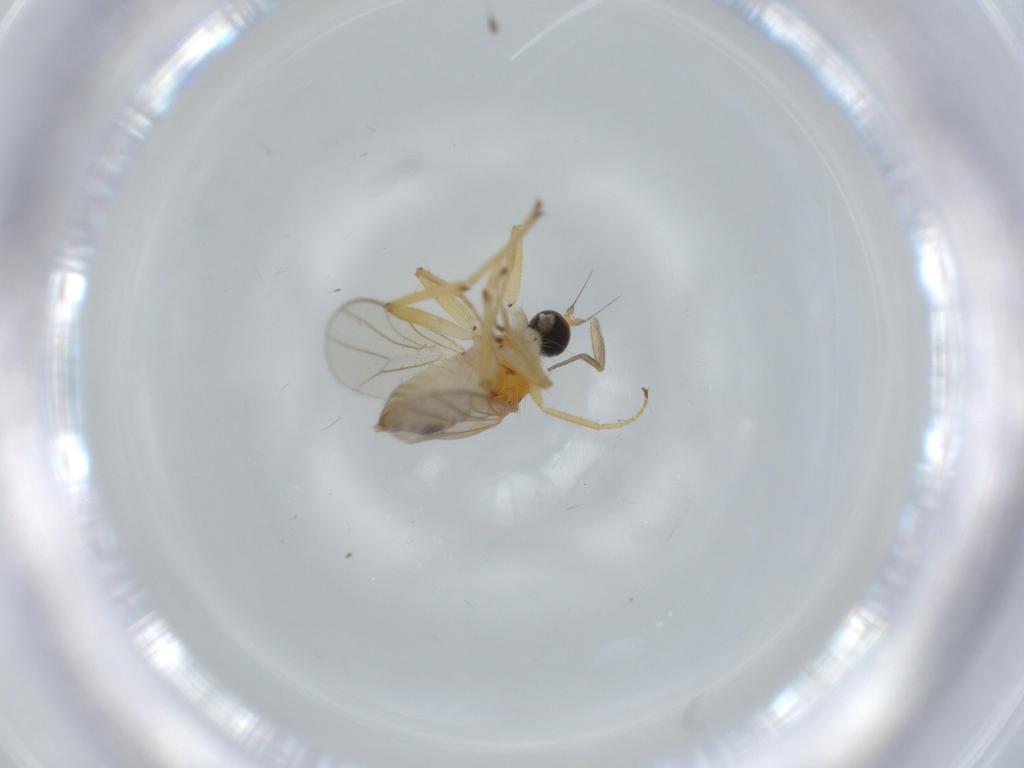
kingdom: Animalia
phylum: Arthropoda
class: Insecta
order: Diptera
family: Hybotidae
